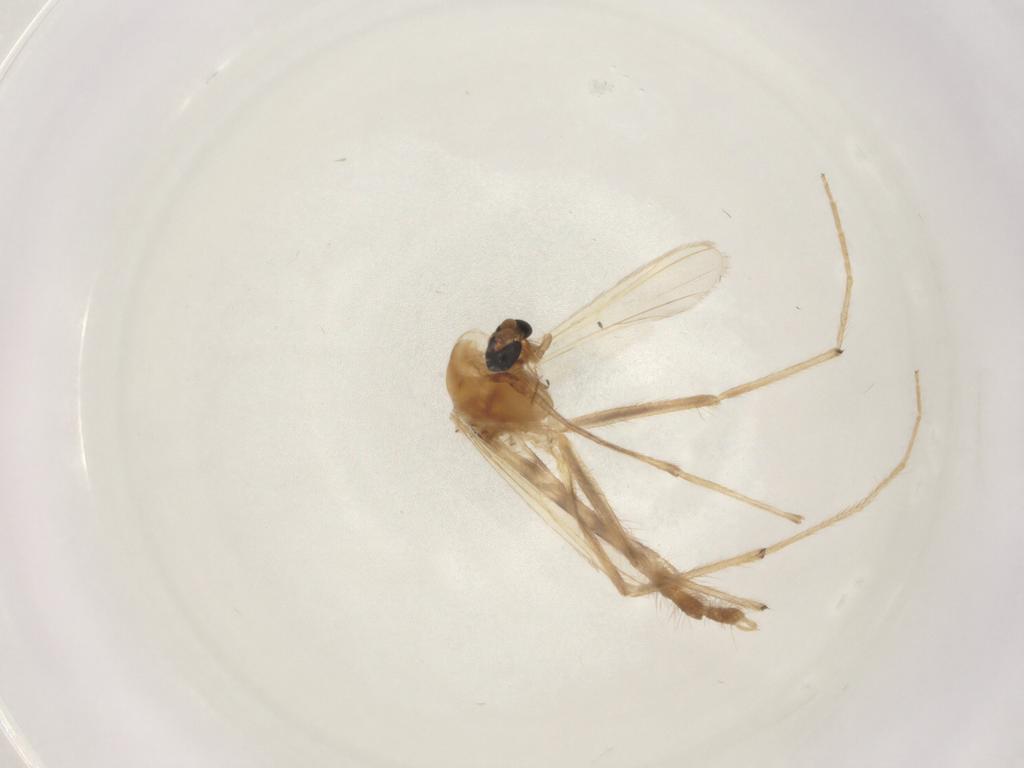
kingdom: Animalia
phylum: Arthropoda
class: Insecta
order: Diptera
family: Chironomidae
